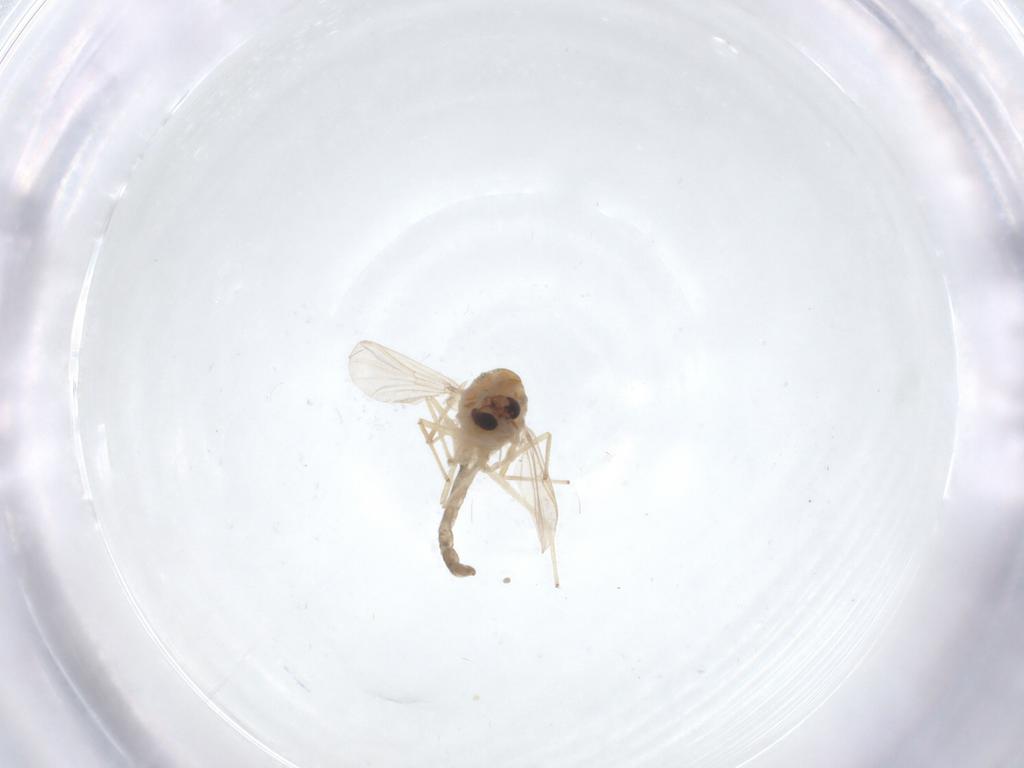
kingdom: Animalia
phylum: Arthropoda
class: Insecta
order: Diptera
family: Chironomidae
